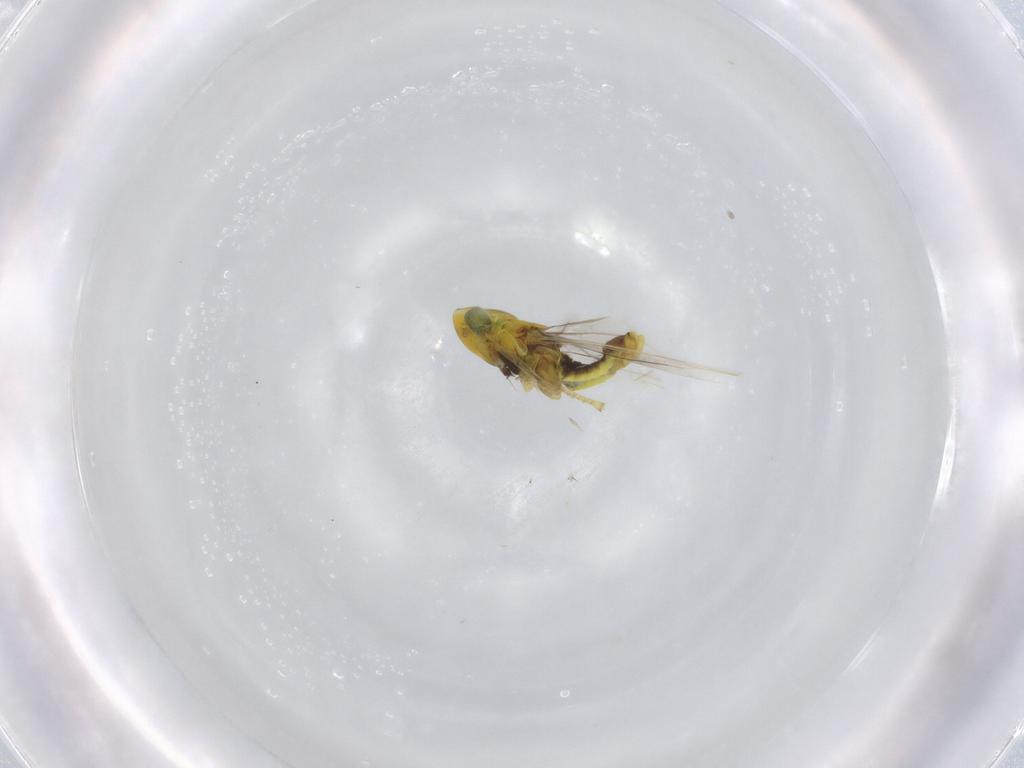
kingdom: Animalia
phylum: Arthropoda
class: Insecta
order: Hemiptera
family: Cicadellidae
